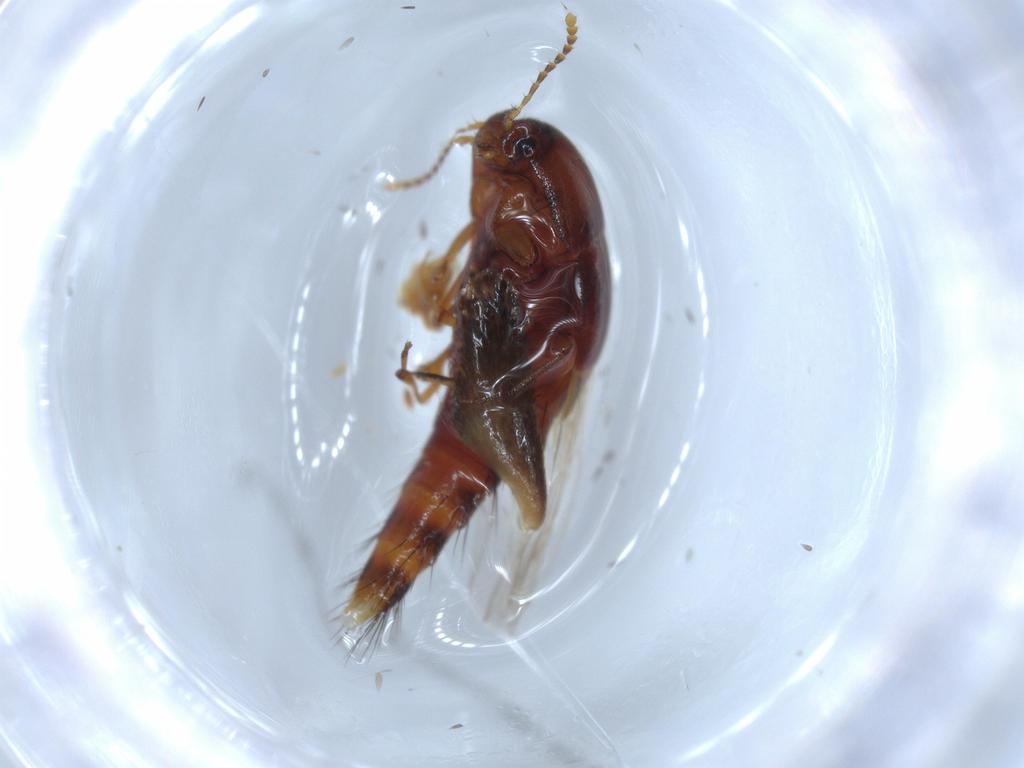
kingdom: Animalia
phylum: Arthropoda
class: Insecta
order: Coleoptera
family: Staphylinidae
